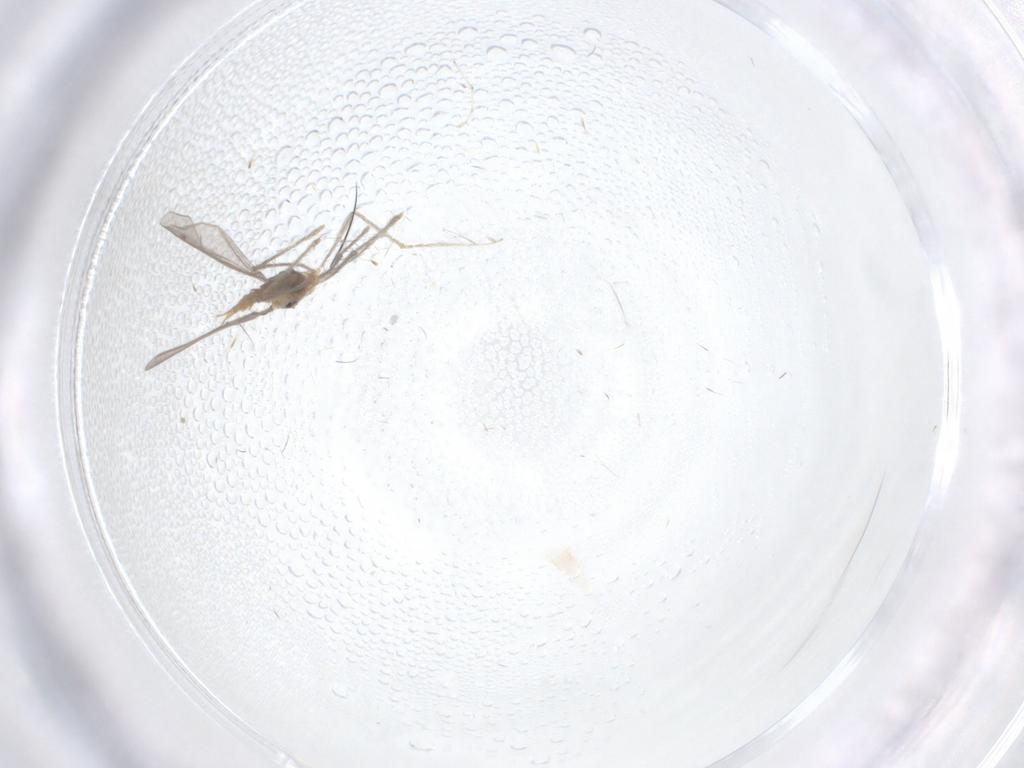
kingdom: Animalia
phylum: Arthropoda
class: Insecta
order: Diptera
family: Cecidomyiidae
